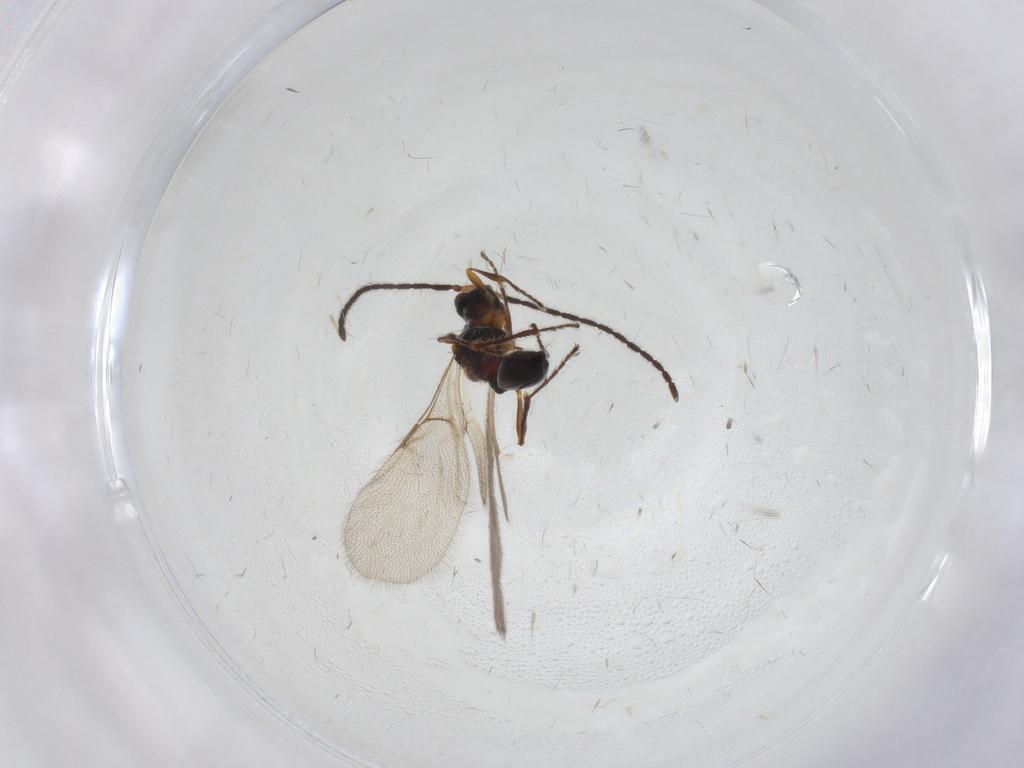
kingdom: Animalia
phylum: Arthropoda
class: Insecta
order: Hymenoptera
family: Diapriidae
